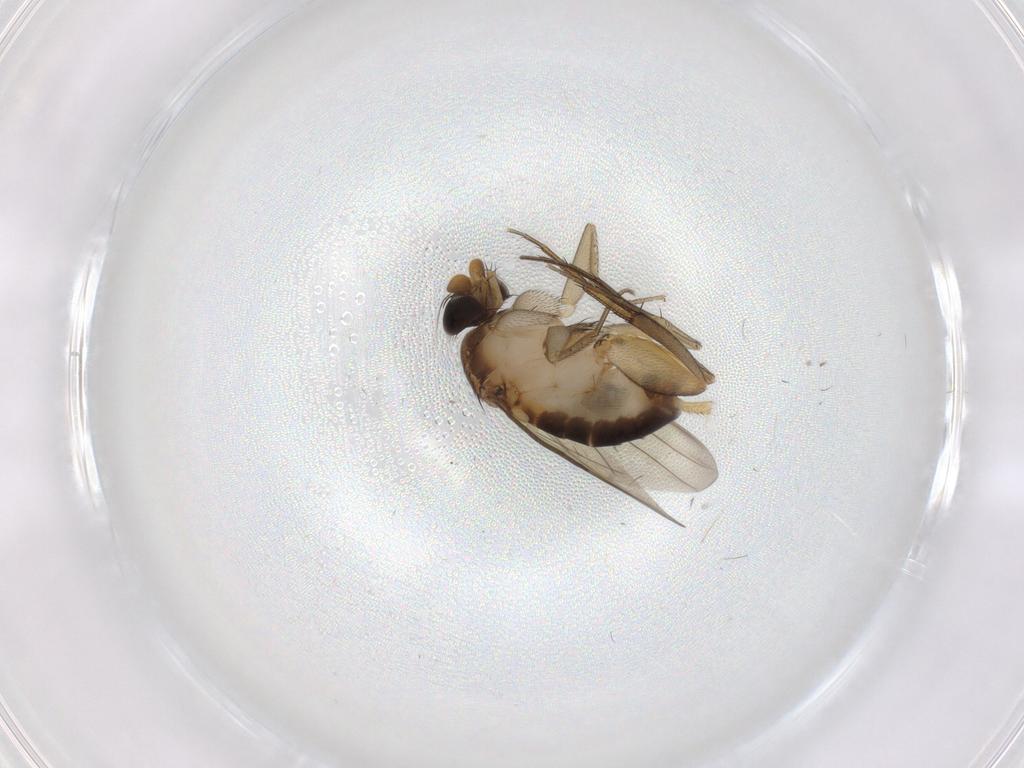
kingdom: Animalia
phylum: Arthropoda
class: Insecta
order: Diptera
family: Phoridae
